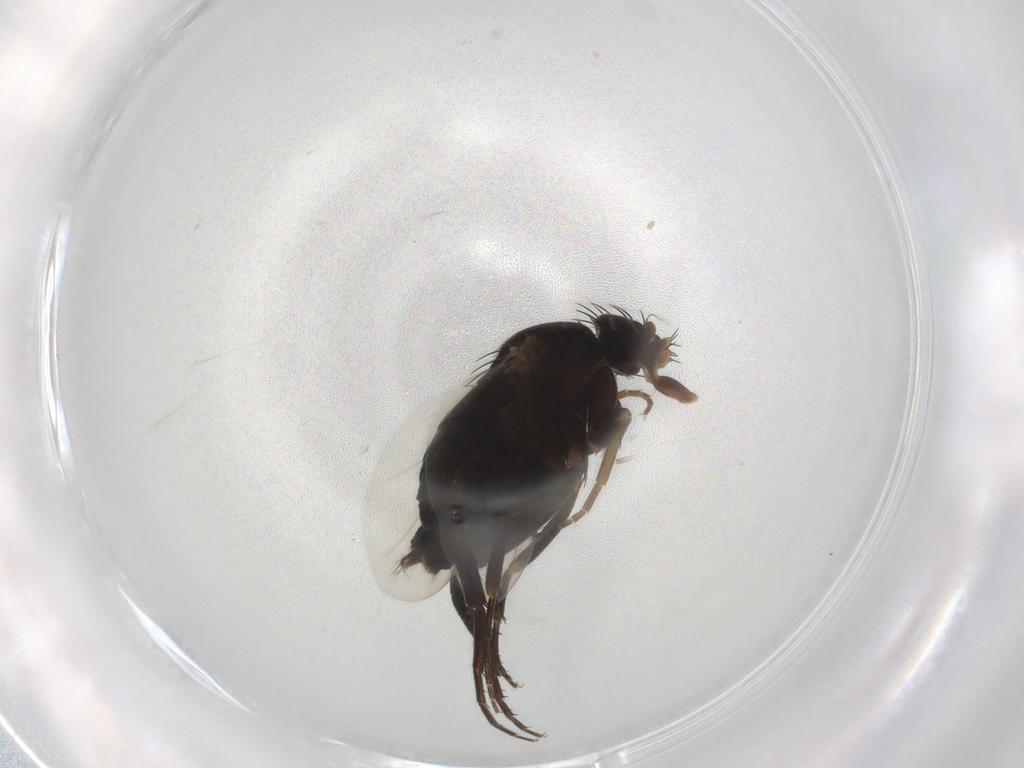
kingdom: Animalia
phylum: Arthropoda
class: Insecta
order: Diptera
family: Phoridae
